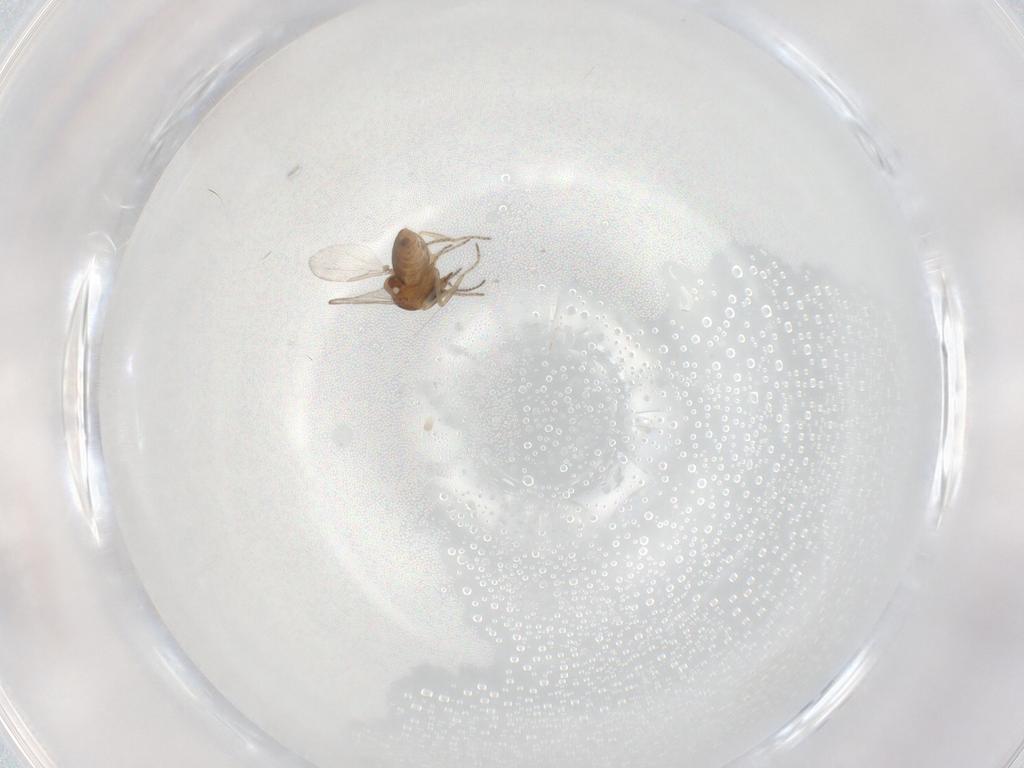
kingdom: Animalia
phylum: Arthropoda
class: Insecta
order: Diptera
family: Ceratopogonidae
